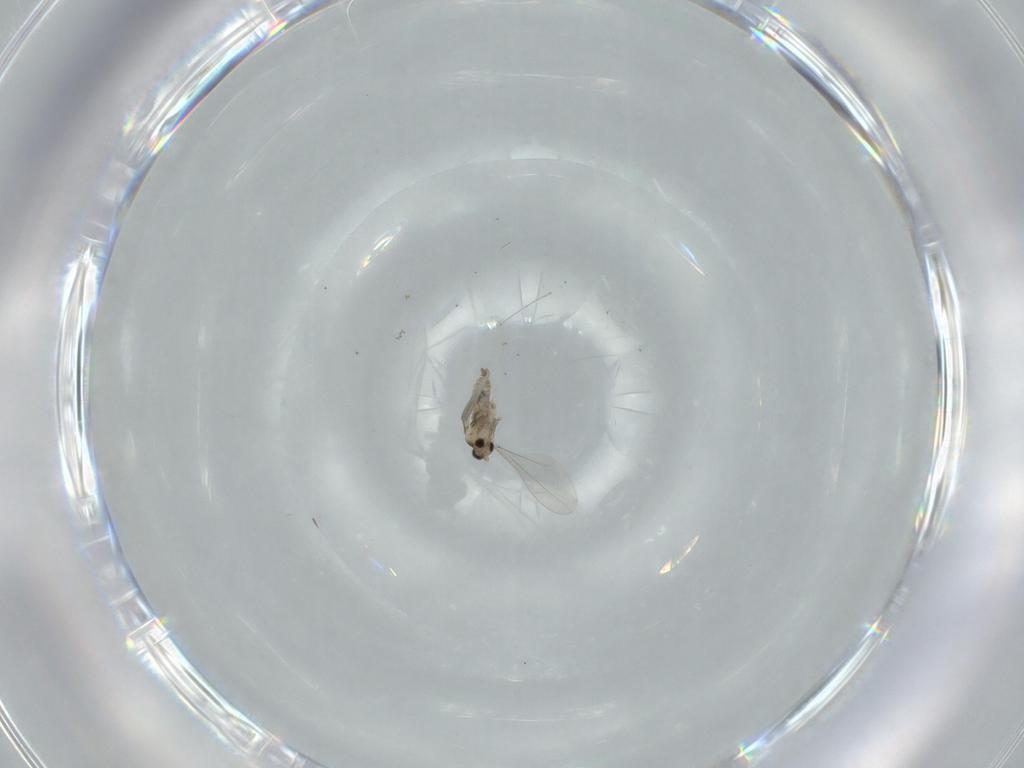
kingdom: Animalia
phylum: Arthropoda
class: Insecta
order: Diptera
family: Cecidomyiidae
